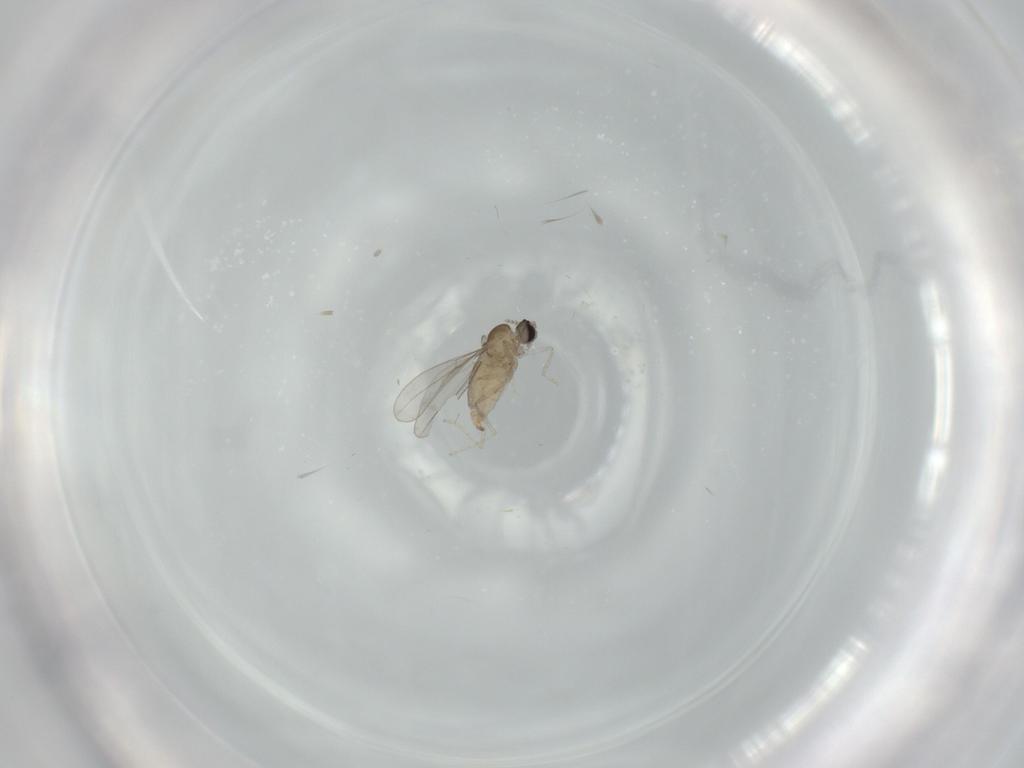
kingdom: Animalia
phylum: Arthropoda
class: Insecta
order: Diptera
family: Cecidomyiidae
